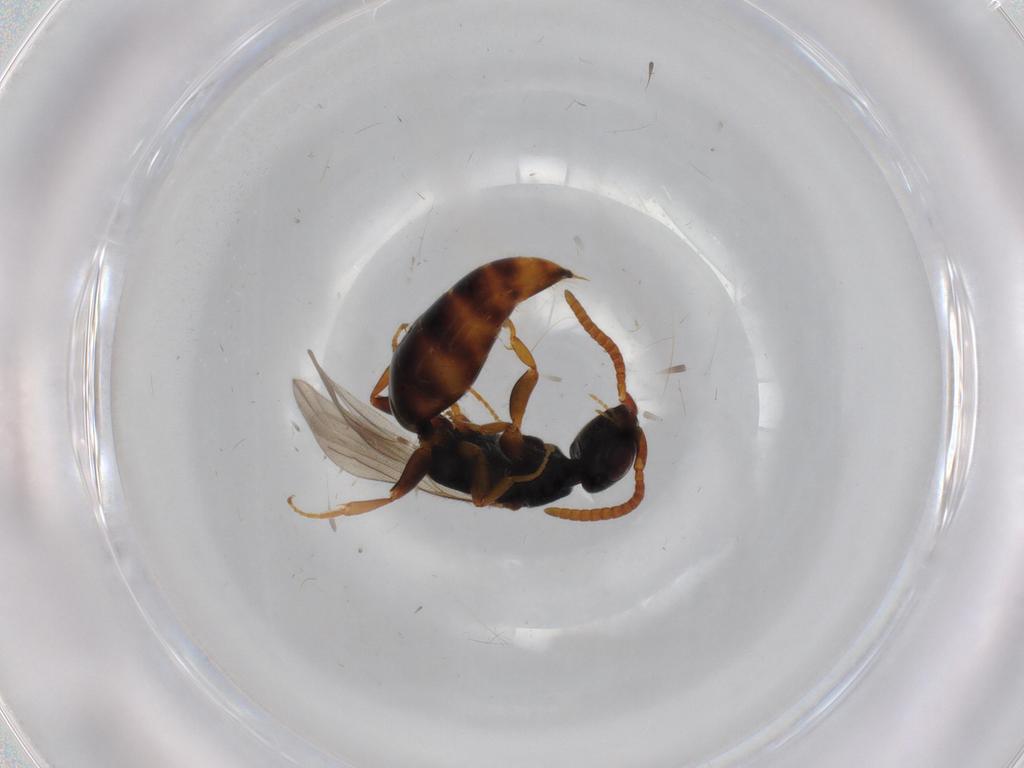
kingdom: Animalia
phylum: Arthropoda
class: Insecta
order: Hymenoptera
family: Bethylidae
